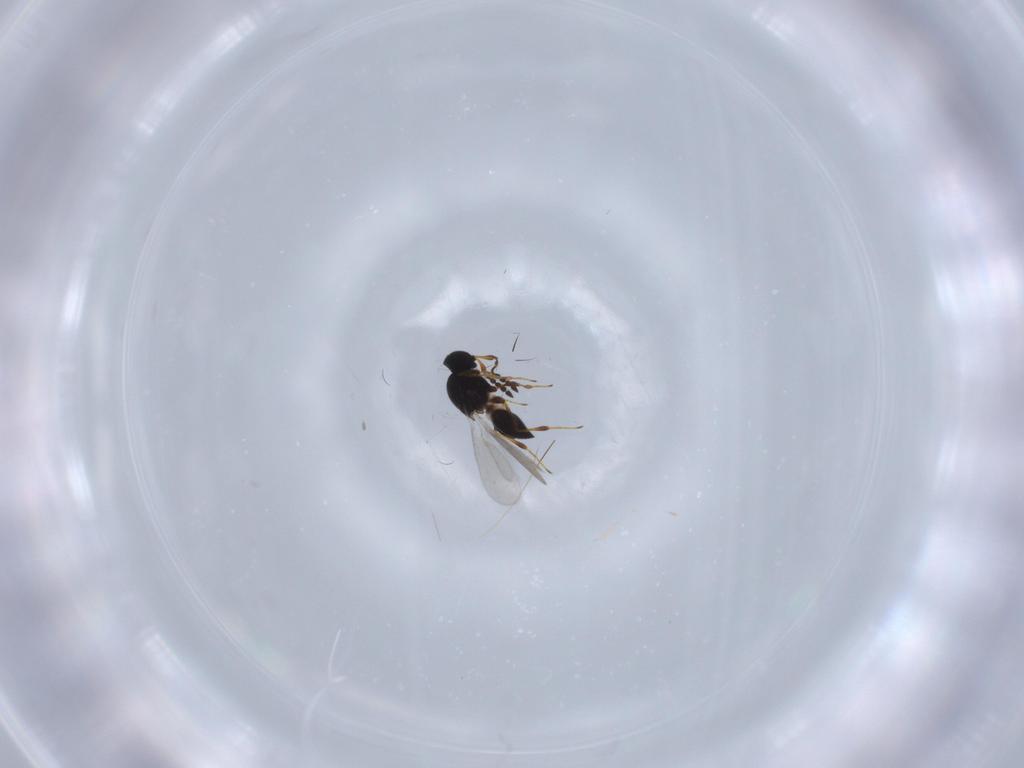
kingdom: Animalia
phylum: Arthropoda
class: Insecta
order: Hymenoptera
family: Platygastridae
